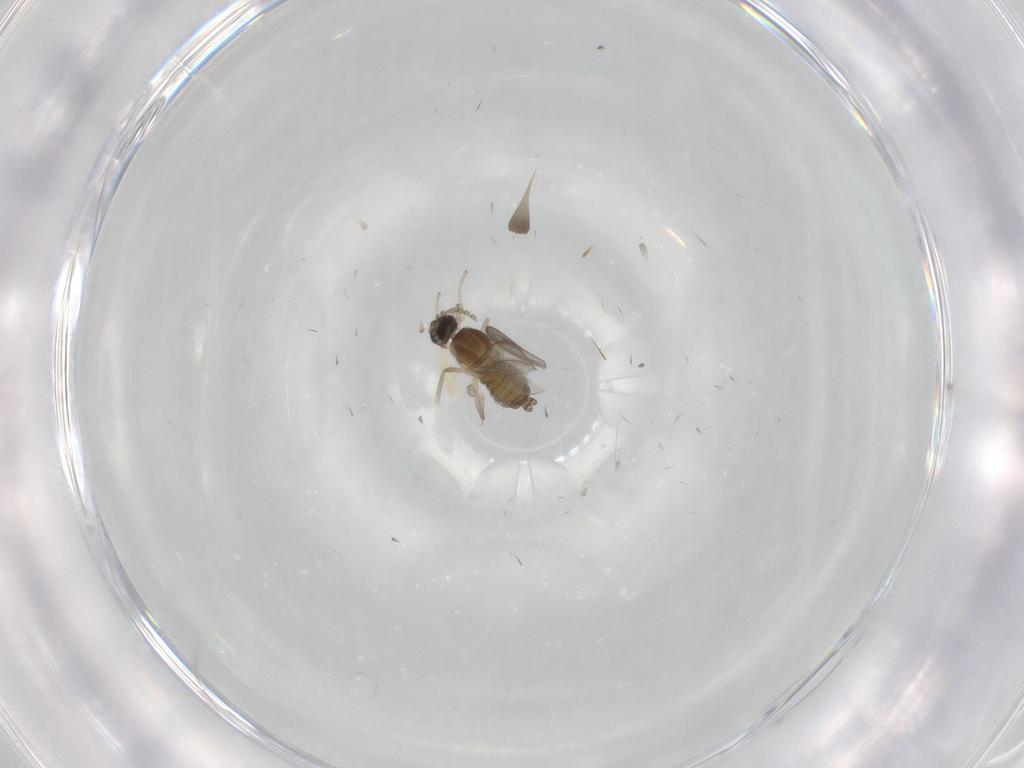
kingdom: Animalia
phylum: Arthropoda
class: Insecta
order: Diptera
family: Cecidomyiidae
